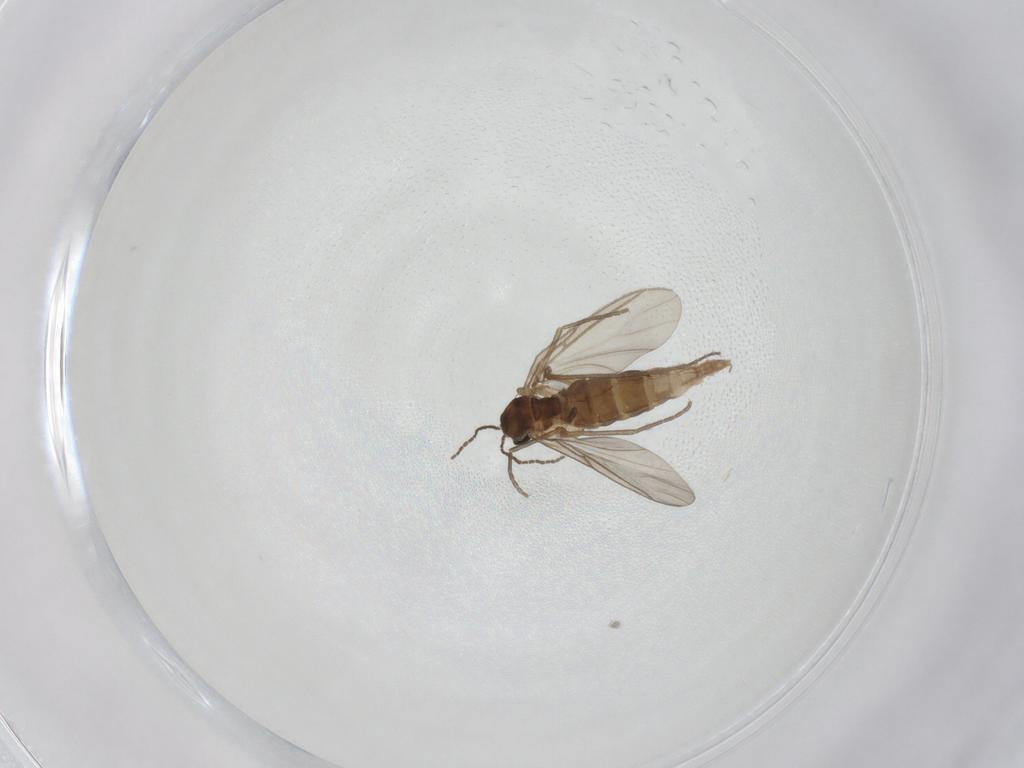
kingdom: Animalia
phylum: Arthropoda
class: Insecta
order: Diptera
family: Sciaridae
